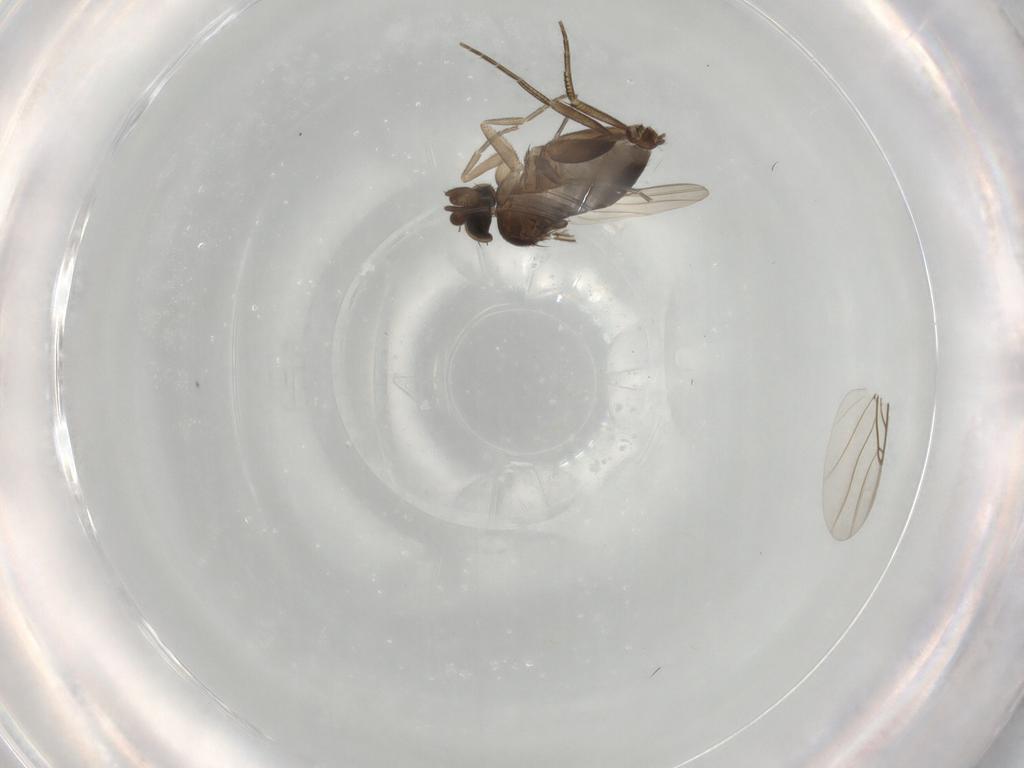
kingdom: Animalia
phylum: Arthropoda
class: Insecta
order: Diptera
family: Phoridae
